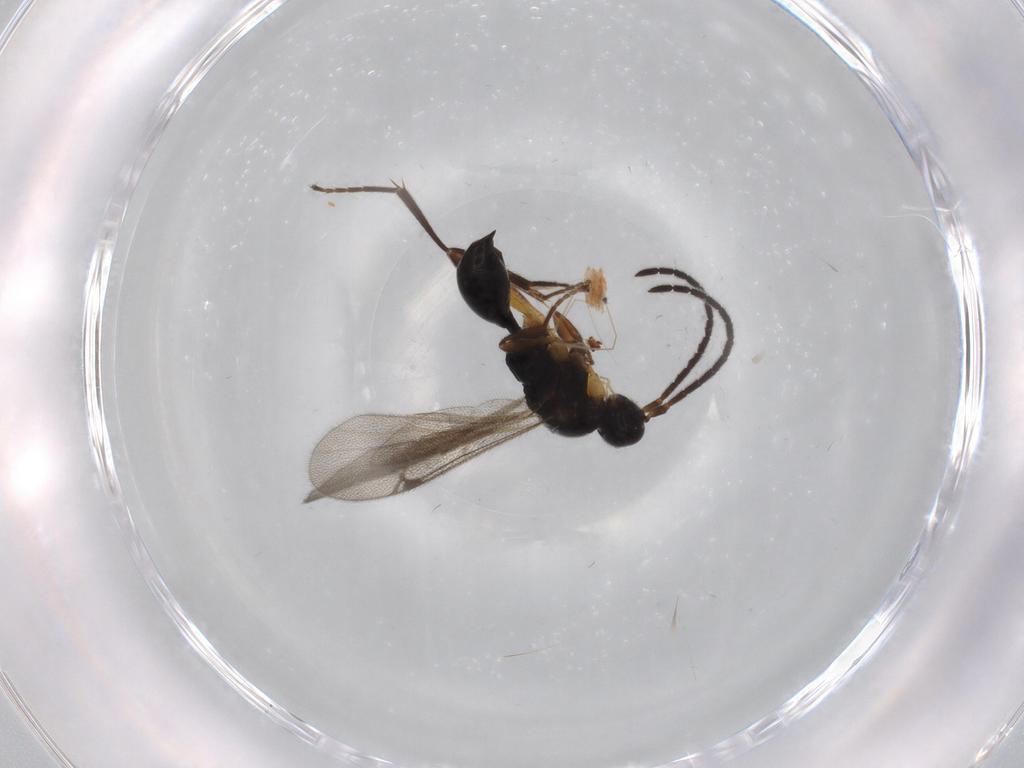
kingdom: Animalia
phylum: Arthropoda
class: Insecta
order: Hymenoptera
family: Proctotrupidae
